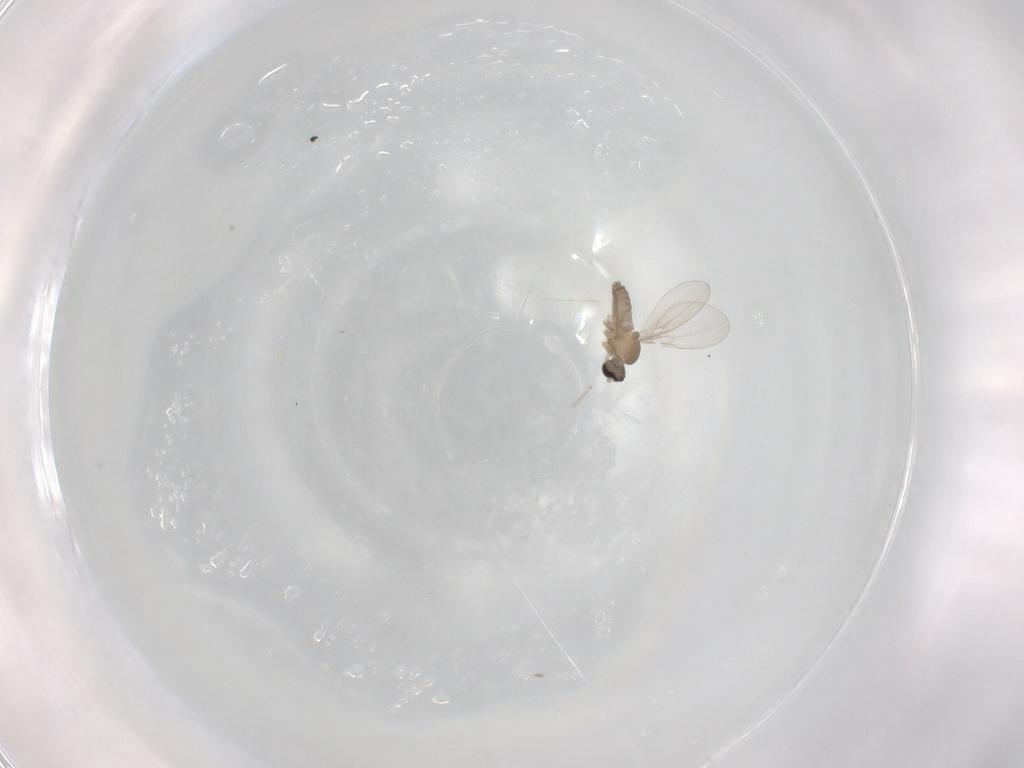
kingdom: Animalia
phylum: Arthropoda
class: Insecta
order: Diptera
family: Cecidomyiidae
